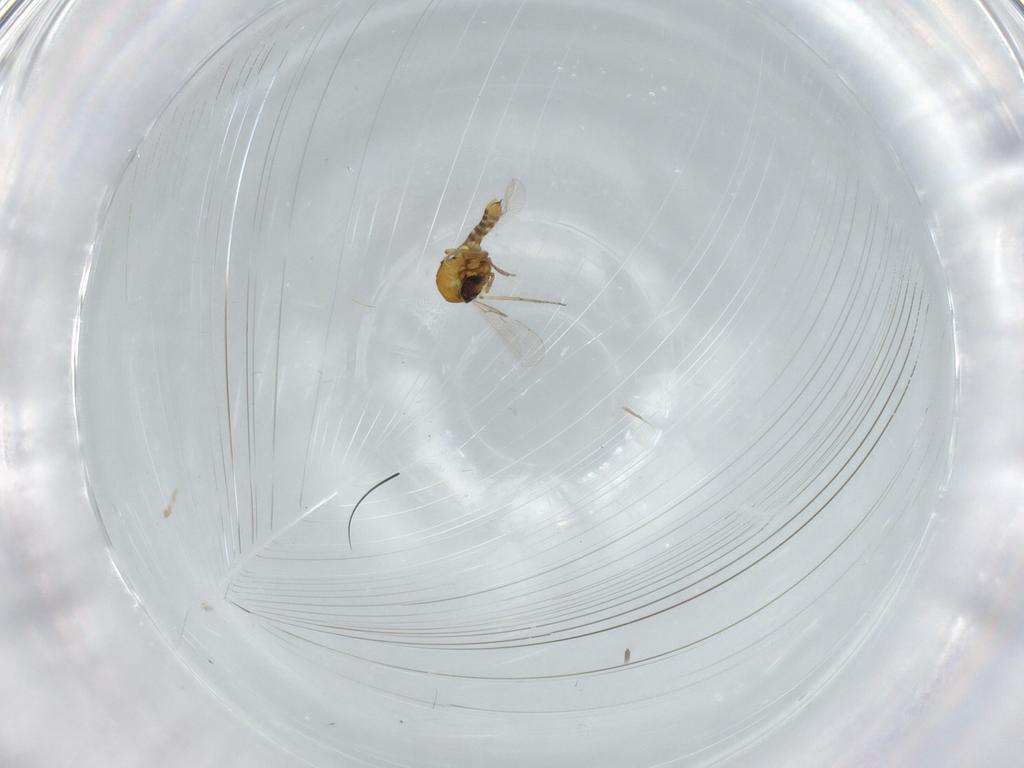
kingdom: Animalia
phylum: Arthropoda
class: Insecta
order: Diptera
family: Ceratopogonidae
